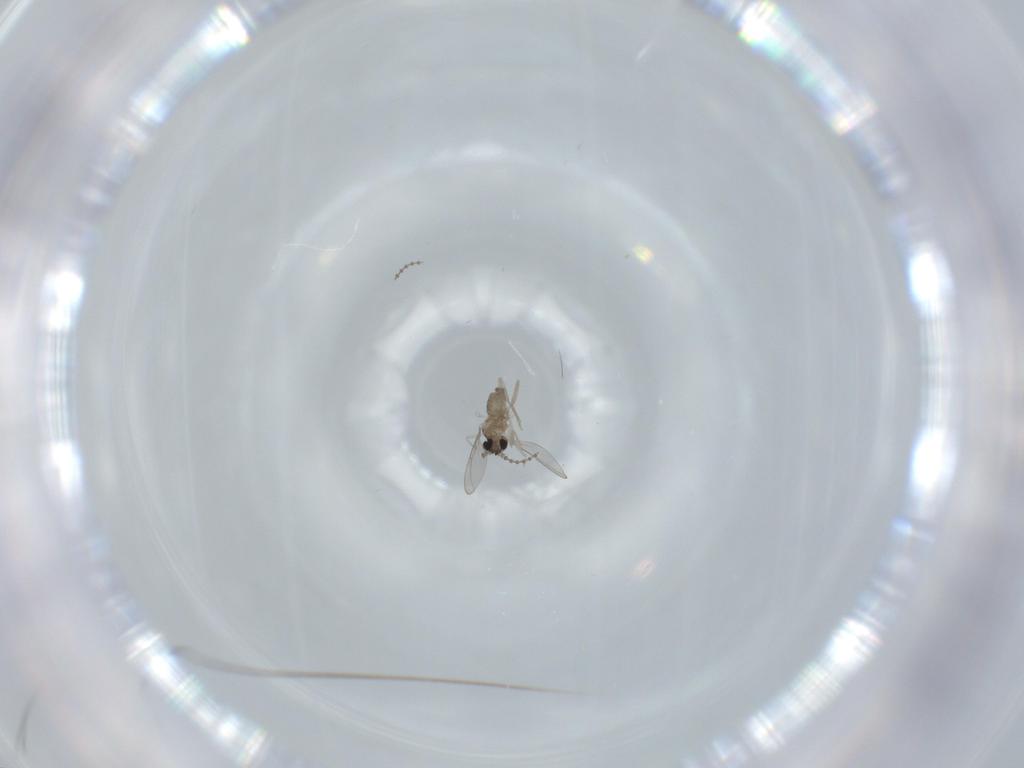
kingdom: Animalia
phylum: Arthropoda
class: Insecta
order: Diptera
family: Cecidomyiidae
